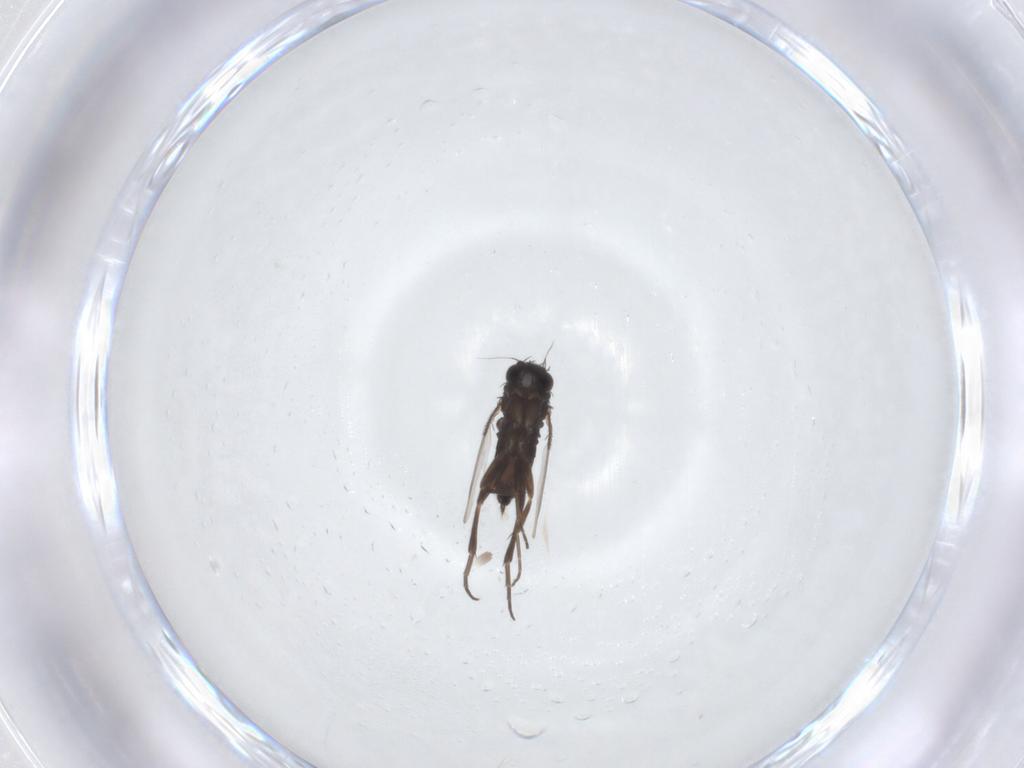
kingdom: Animalia
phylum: Arthropoda
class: Insecta
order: Diptera
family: Phoridae
